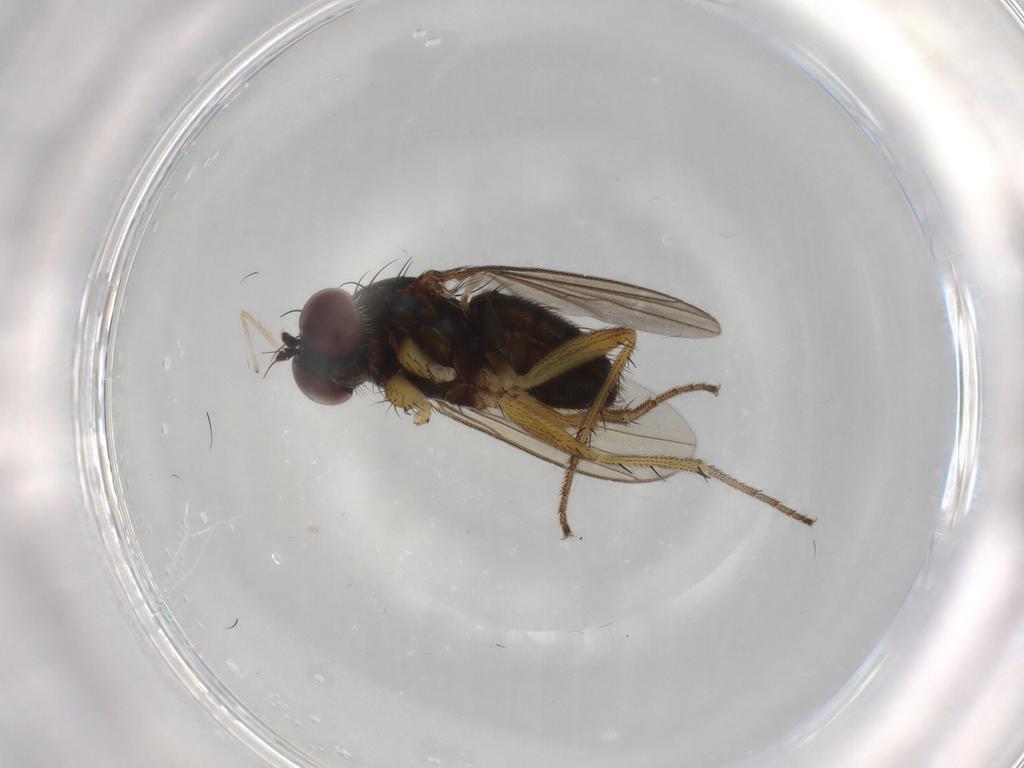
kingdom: Animalia
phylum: Arthropoda
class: Insecta
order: Diptera
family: Dolichopodidae
